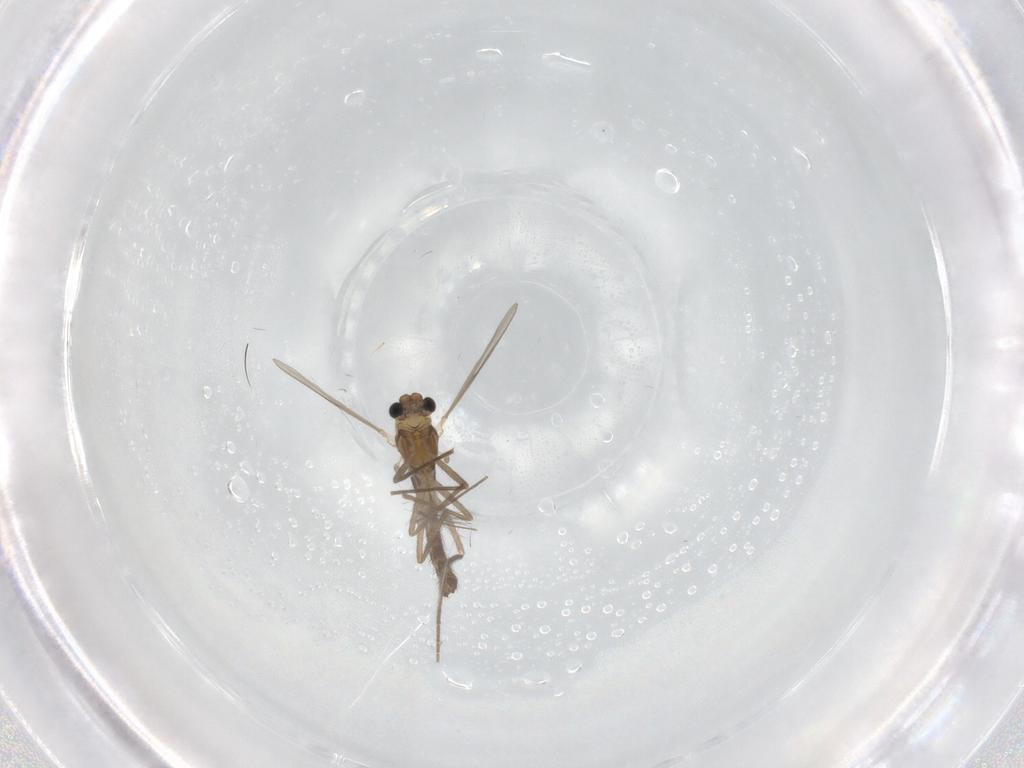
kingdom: Animalia
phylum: Arthropoda
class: Insecta
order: Diptera
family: Chironomidae
